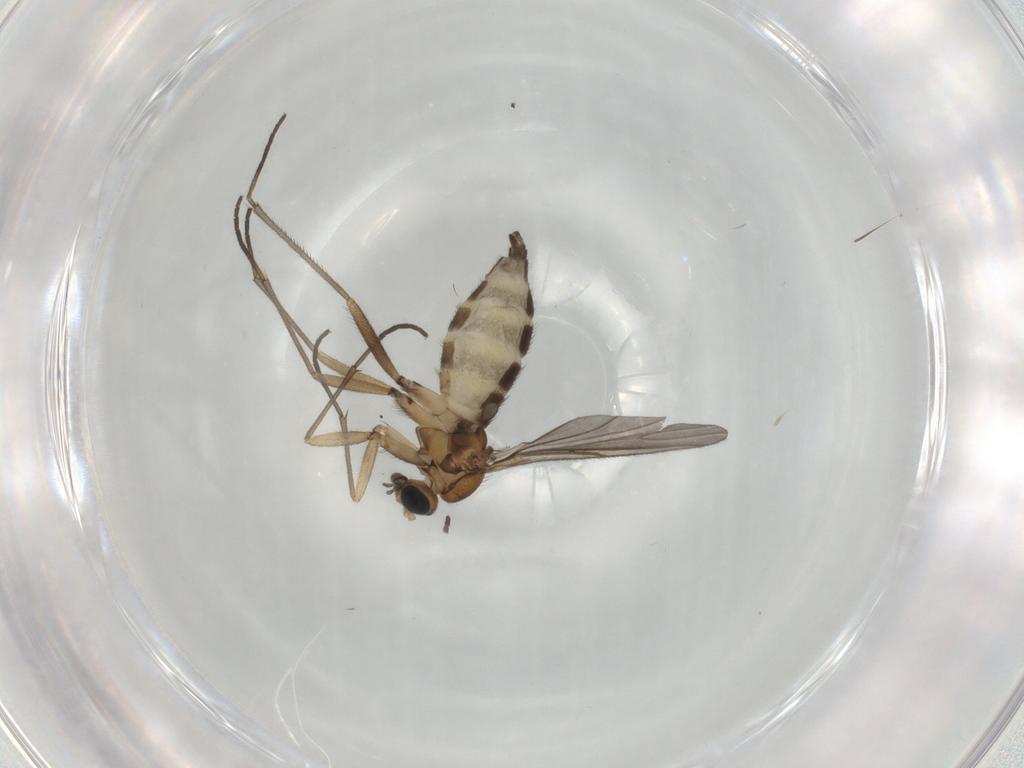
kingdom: Animalia
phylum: Arthropoda
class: Insecta
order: Diptera
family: Sciaridae
